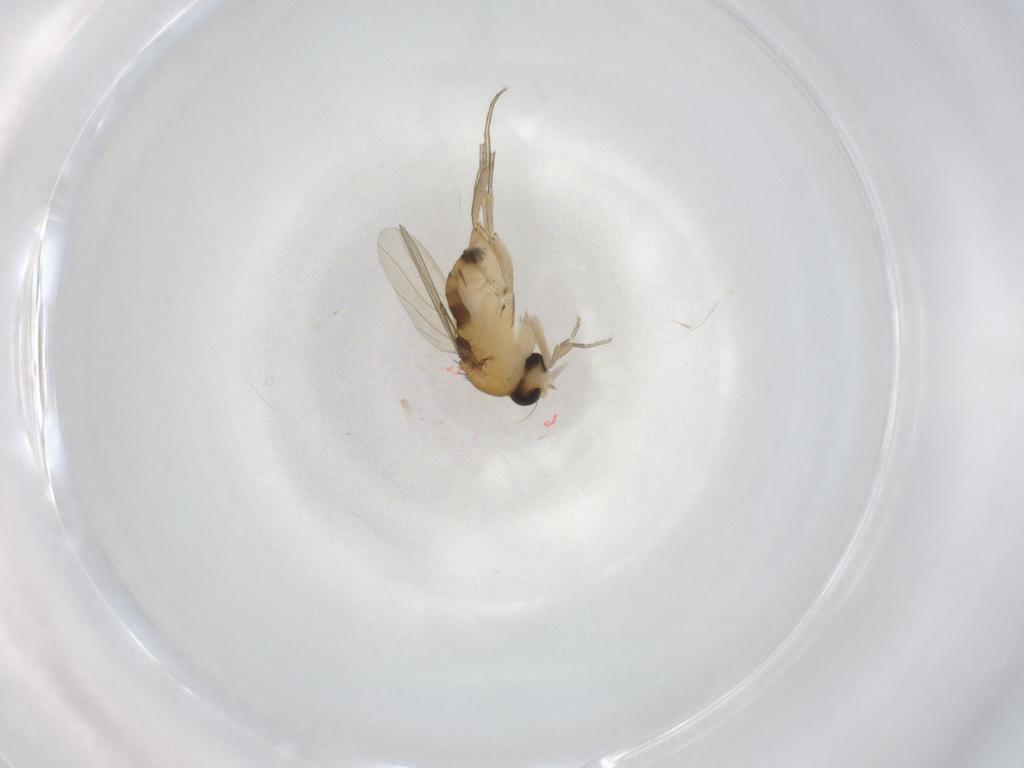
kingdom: Animalia
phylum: Arthropoda
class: Insecta
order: Diptera
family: Phoridae
